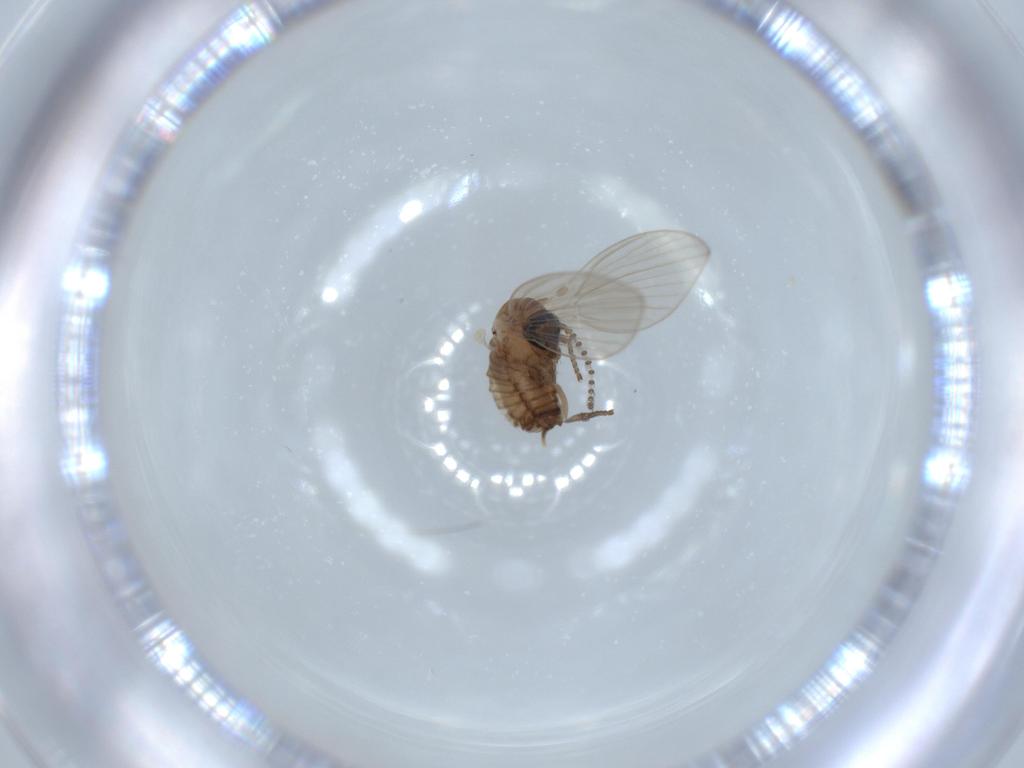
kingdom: Animalia
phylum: Arthropoda
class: Insecta
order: Diptera
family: Psychodidae
